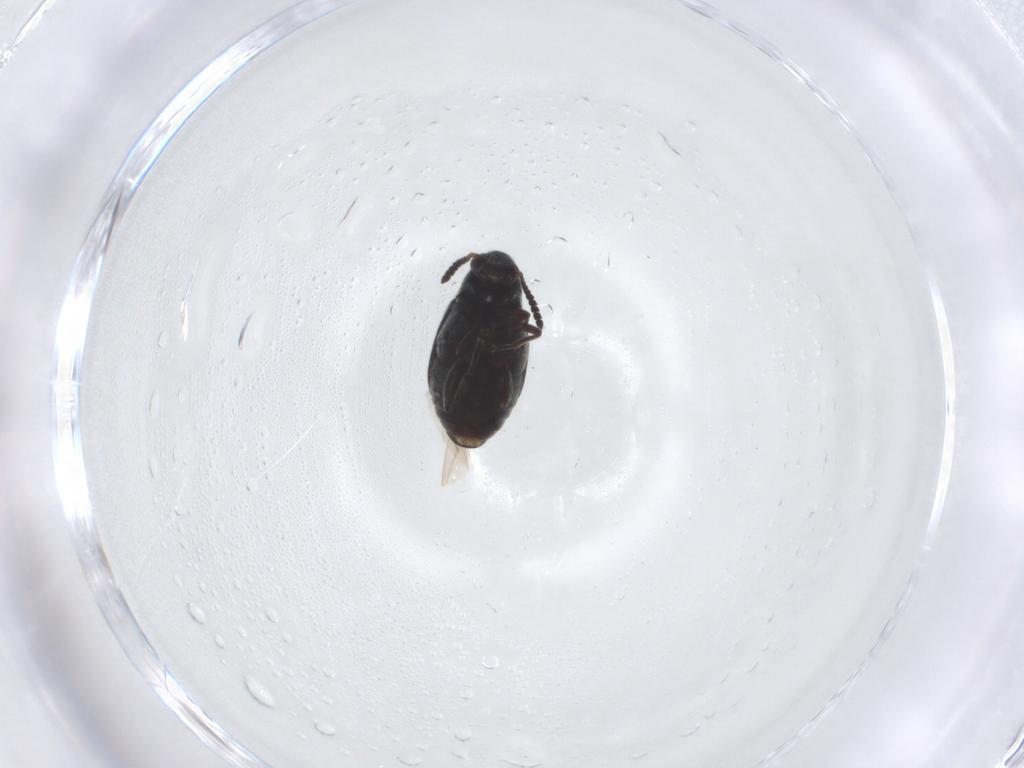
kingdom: Animalia
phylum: Arthropoda
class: Insecta
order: Coleoptera
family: Chrysomelidae
